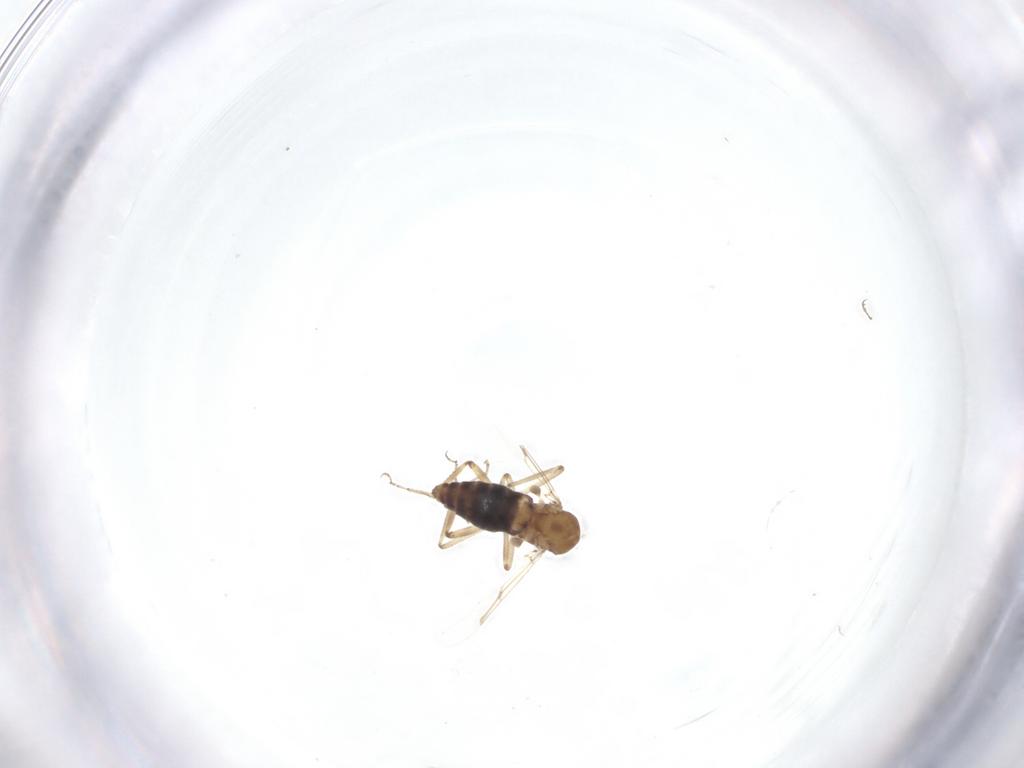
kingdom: Animalia
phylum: Arthropoda
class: Insecta
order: Diptera
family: Ceratopogonidae
